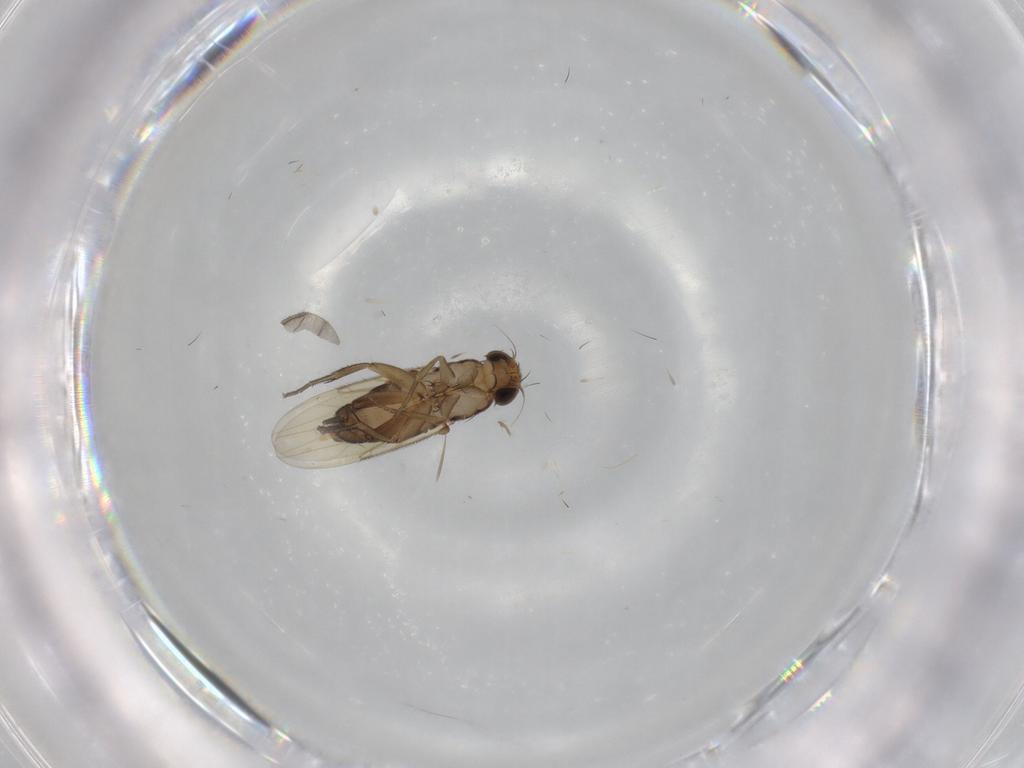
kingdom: Animalia
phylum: Arthropoda
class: Insecta
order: Diptera
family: Phoridae
